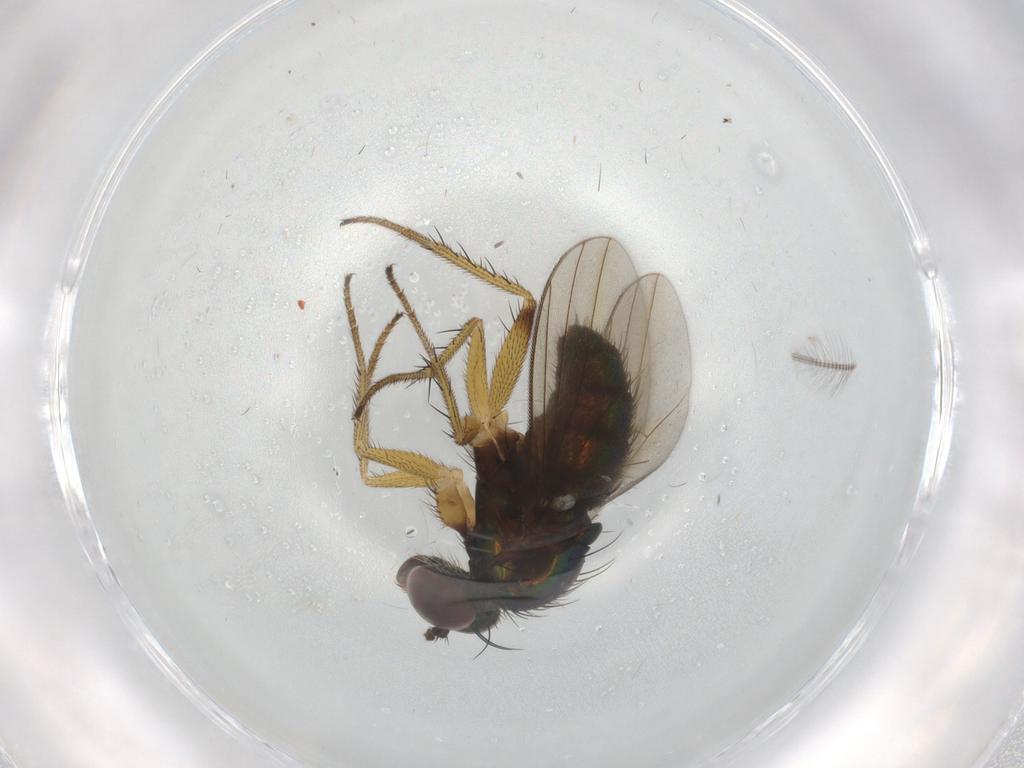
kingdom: Animalia
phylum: Arthropoda
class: Insecta
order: Diptera
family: Dolichopodidae
